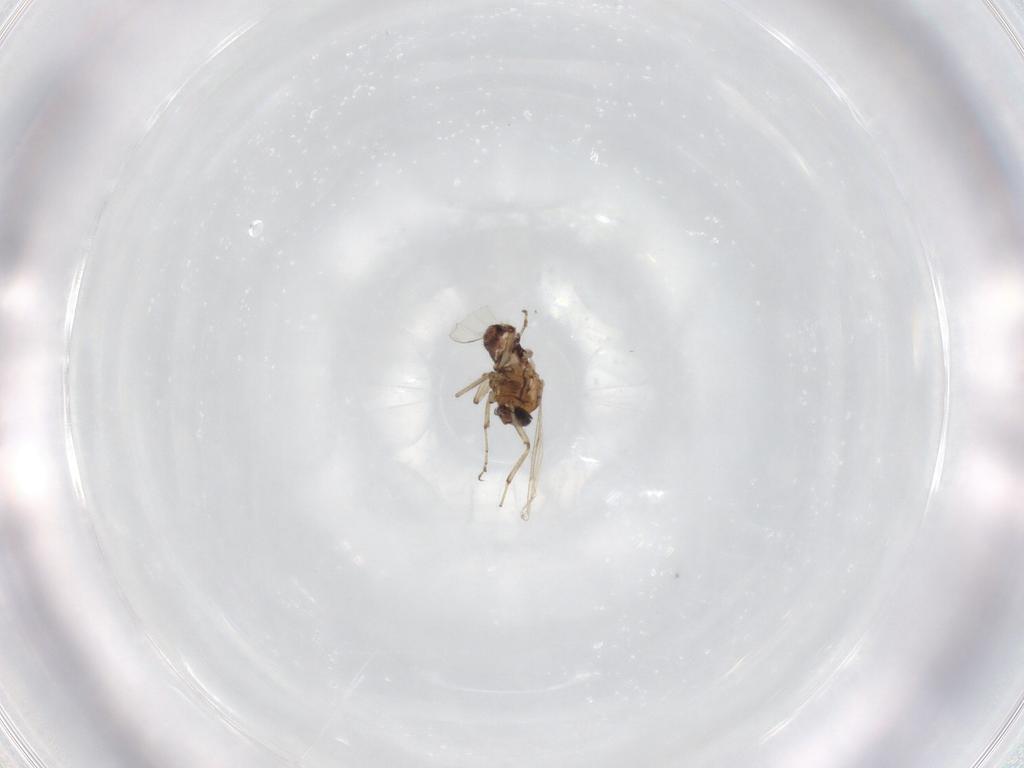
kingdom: Animalia
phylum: Arthropoda
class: Insecta
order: Diptera
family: Ceratopogonidae
